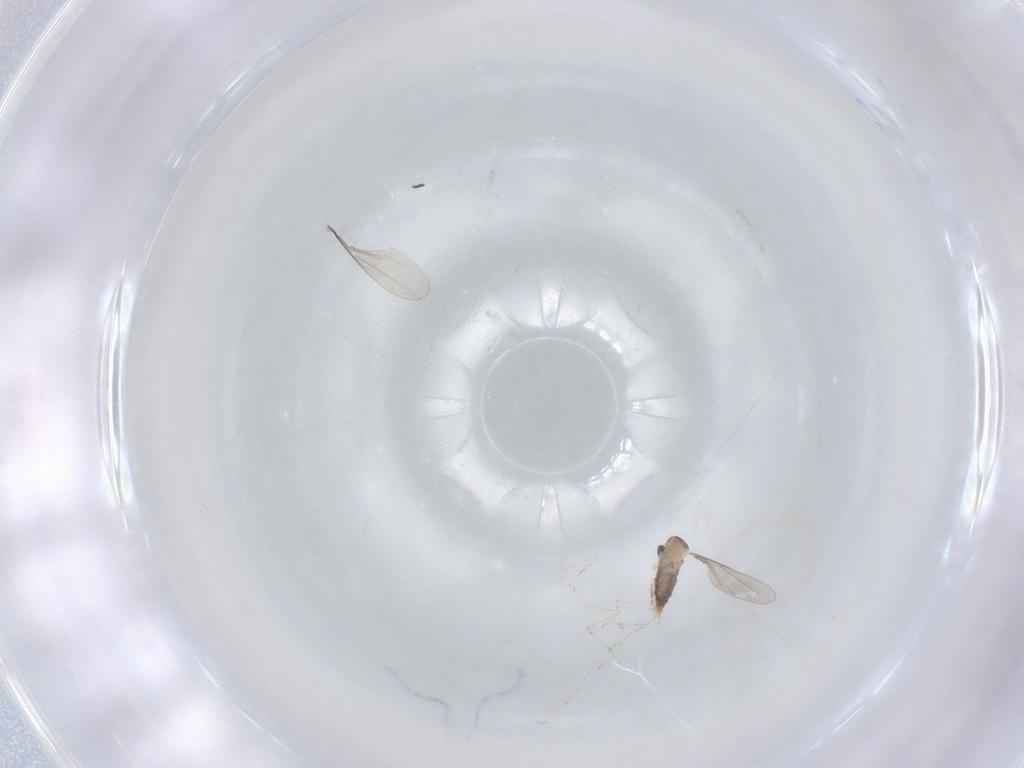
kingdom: Animalia
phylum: Arthropoda
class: Insecta
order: Diptera
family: Cecidomyiidae
